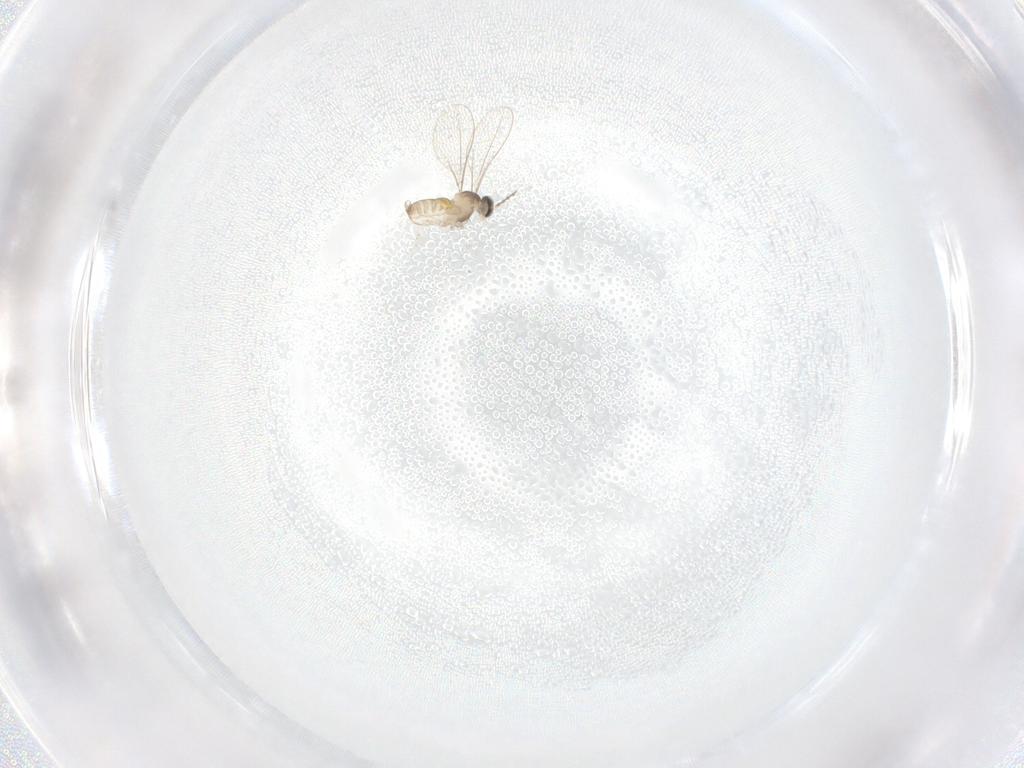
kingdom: Animalia
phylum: Arthropoda
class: Insecta
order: Diptera
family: Cecidomyiidae
